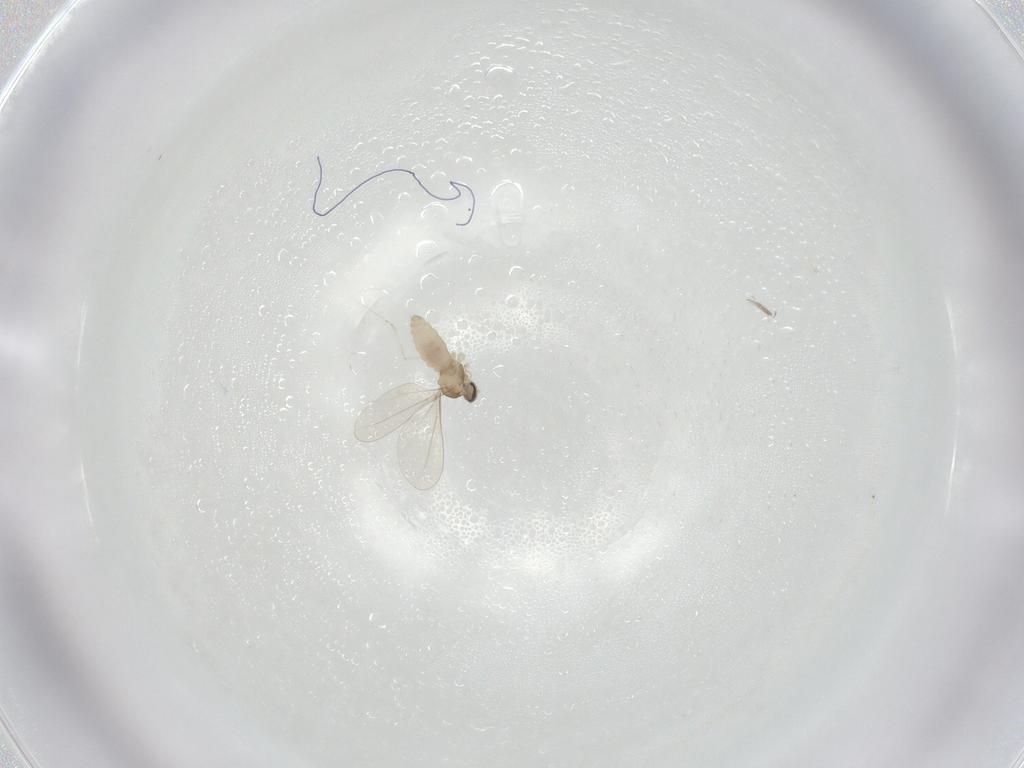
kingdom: Animalia
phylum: Arthropoda
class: Insecta
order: Diptera
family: Cecidomyiidae
